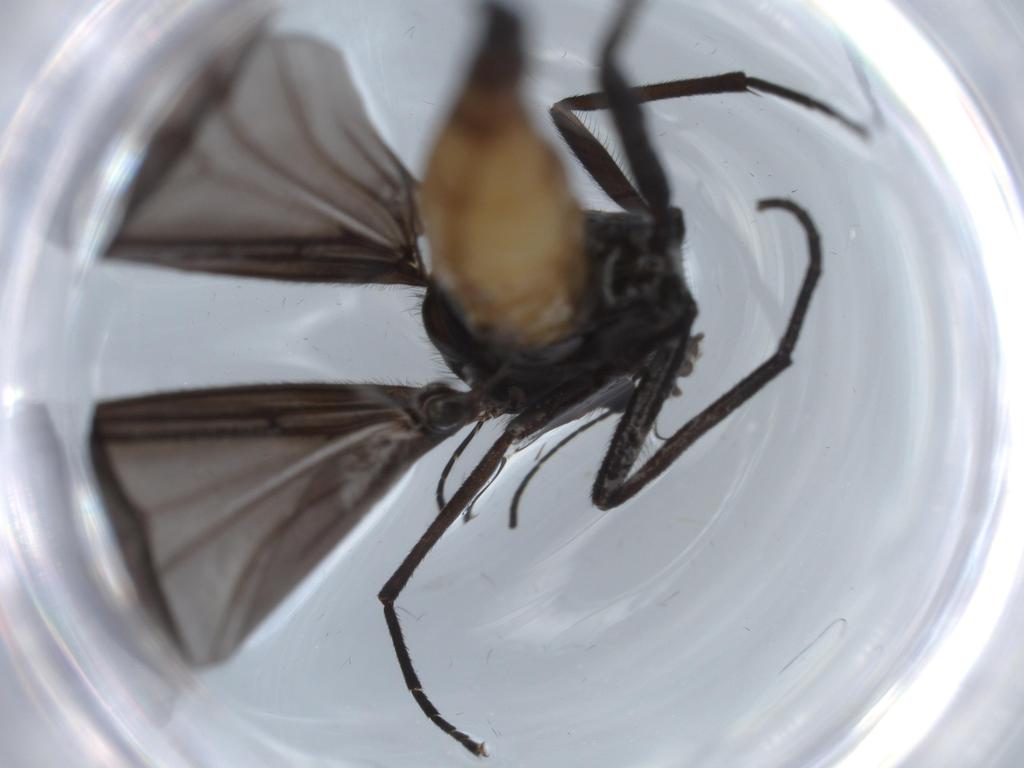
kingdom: Animalia
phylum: Arthropoda
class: Insecta
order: Diptera
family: Sciaridae
